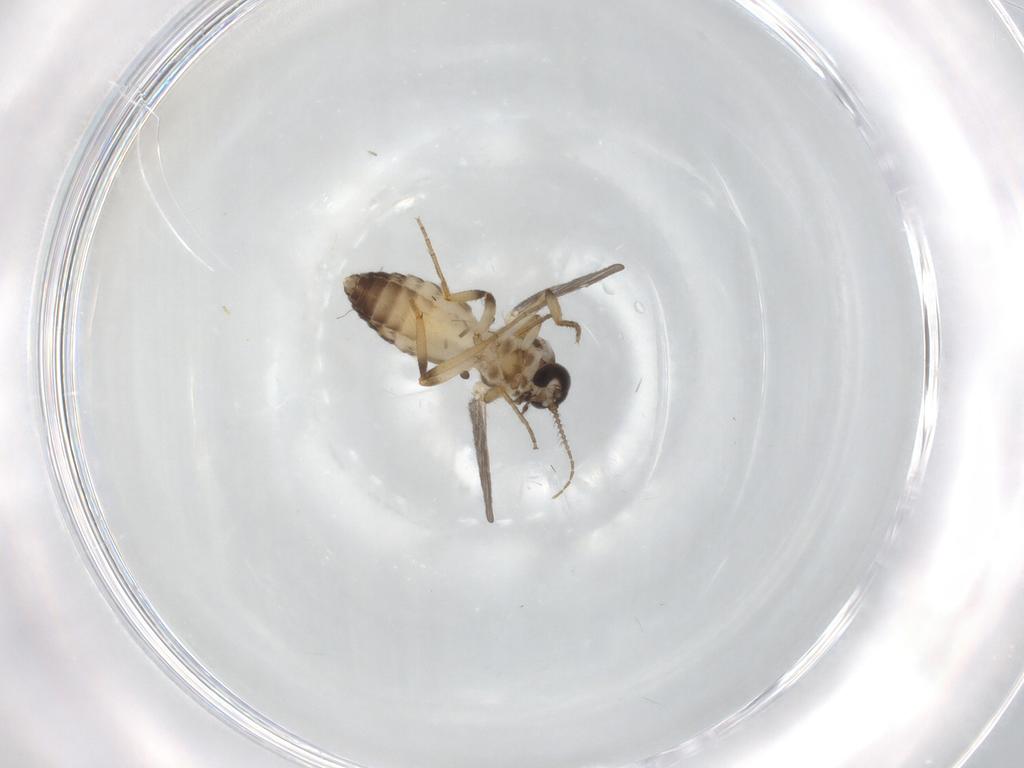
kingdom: Animalia
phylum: Arthropoda
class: Insecta
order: Diptera
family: Ceratopogonidae
